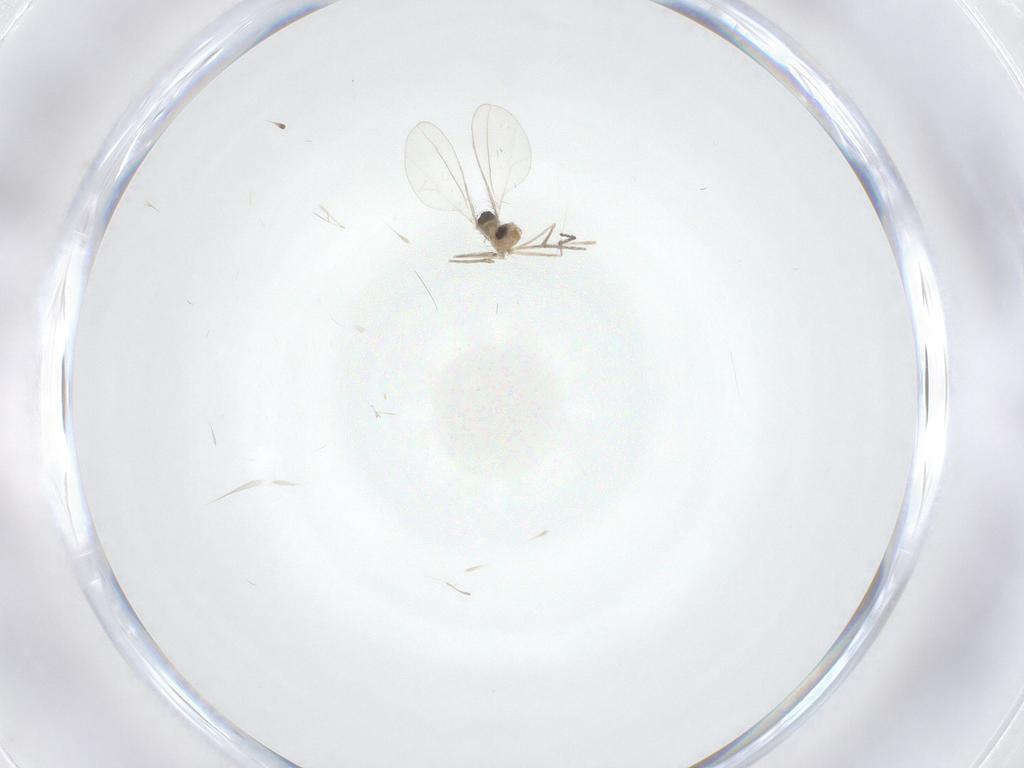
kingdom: Animalia
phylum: Arthropoda
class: Insecta
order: Diptera
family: Cecidomyiidae
